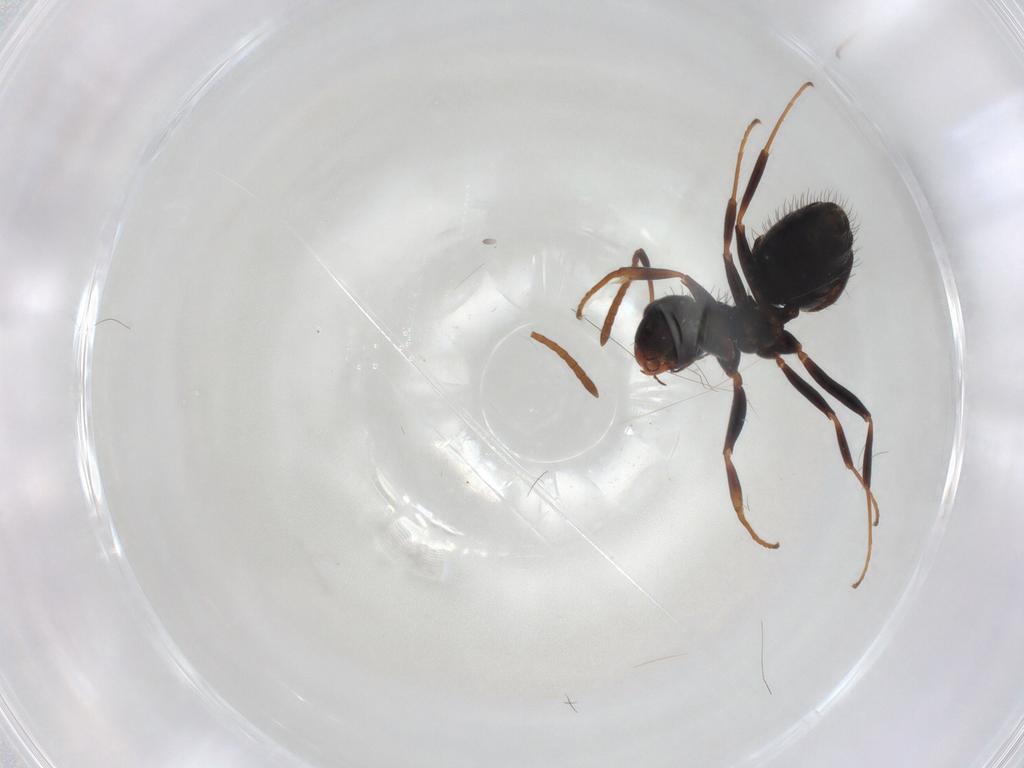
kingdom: Animalia
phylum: Arthropoda
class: Insecta
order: Hymenoptera
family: Formicidae
